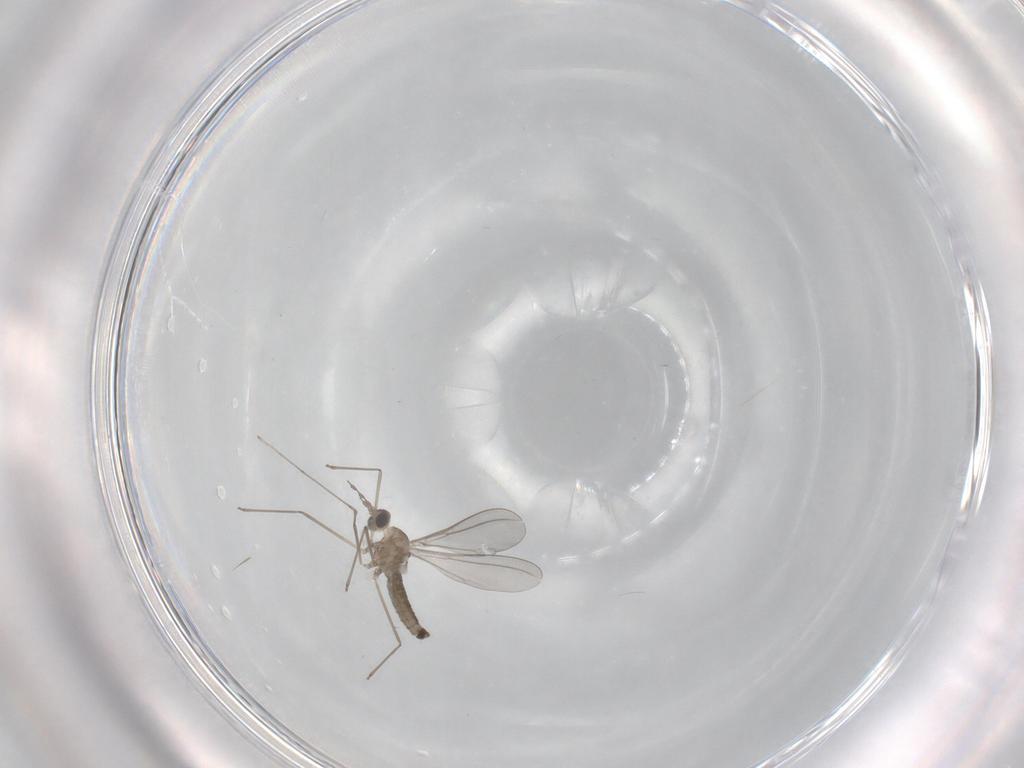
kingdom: Animalia
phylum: Arthropoda
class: Insecta
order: Diptera
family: Cecidomyiidae
